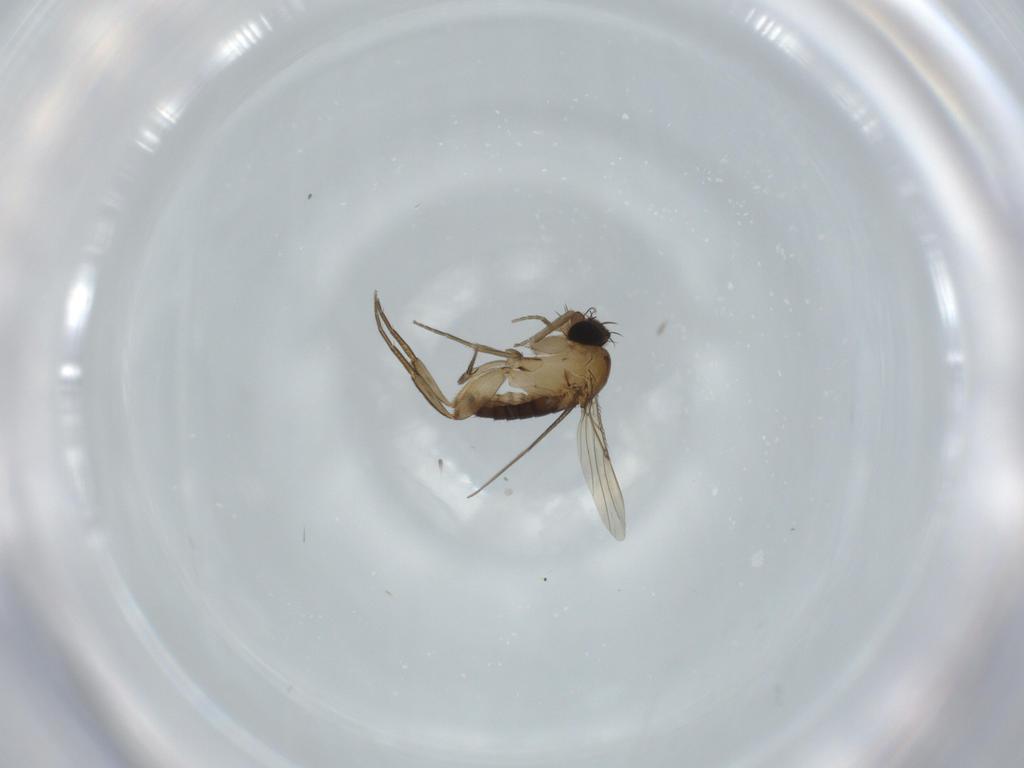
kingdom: Animalia
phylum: Arthropoda
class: Insecta
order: Diptera
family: Phoridae
